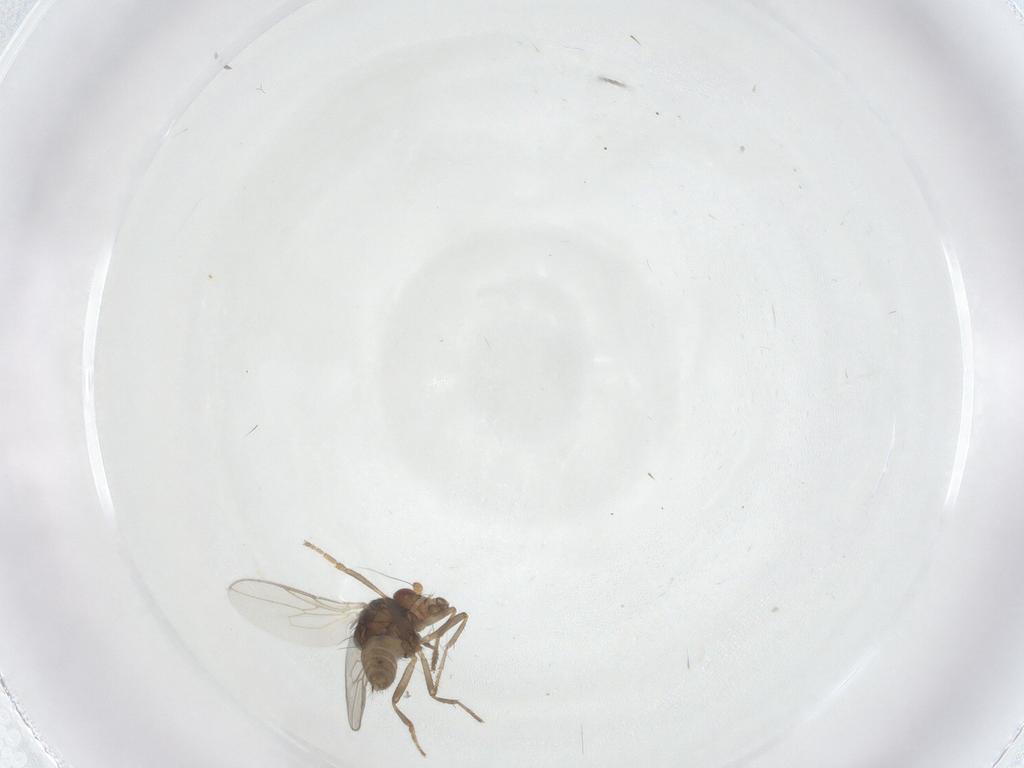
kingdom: Animalia
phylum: Arthropoda
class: Insecta
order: Diptera
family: Sphaeroceridae
